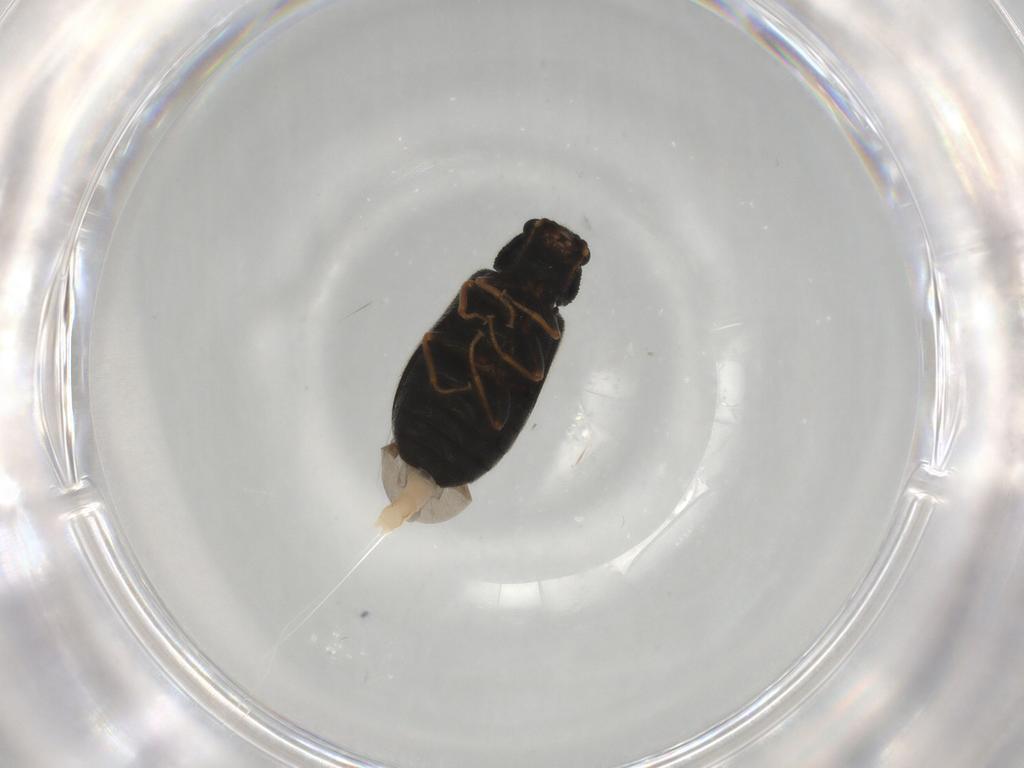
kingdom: Animalia
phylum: Arthropoda
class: Insecta
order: Coleoptera
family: Melyridae
